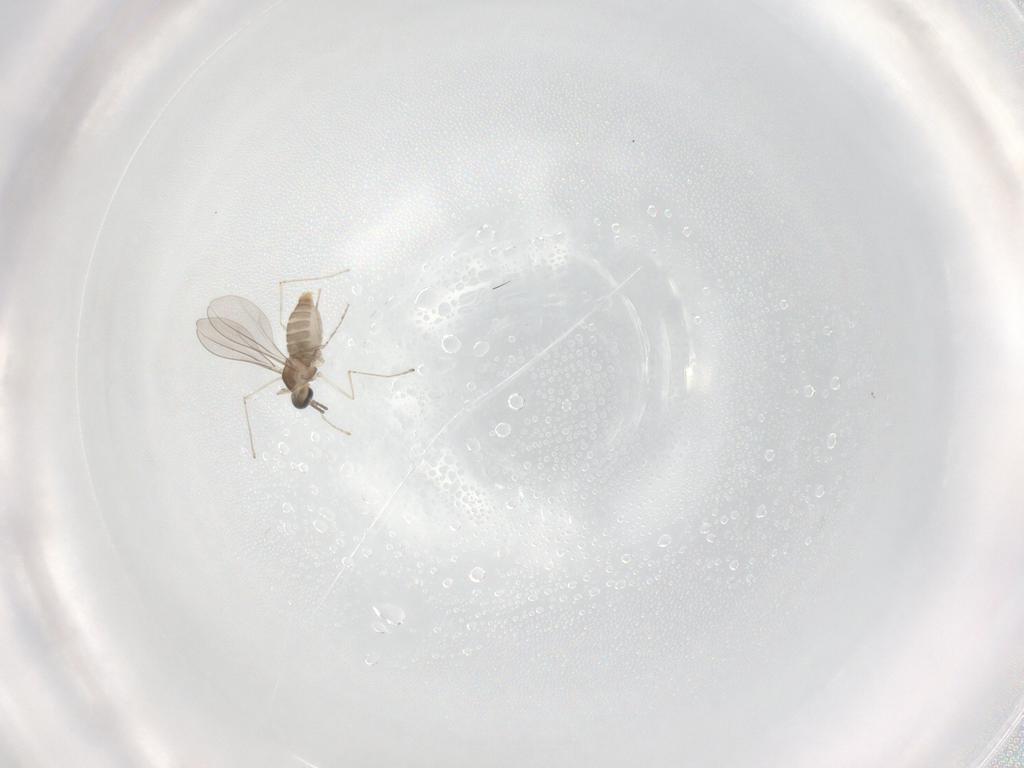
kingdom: Animalia
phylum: Arthropoda
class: Insecta
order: Diptera
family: Cecidomyiidae
